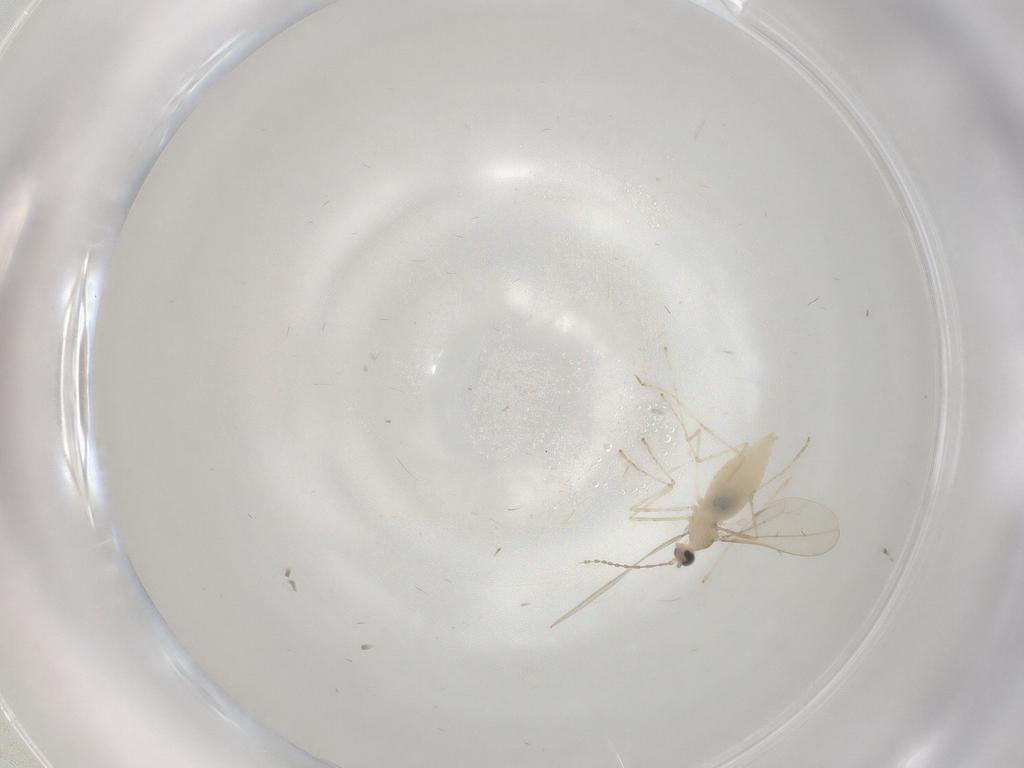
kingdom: Animalia
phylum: Arthropoda
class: Insecta
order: Diptera
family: Cecidomyiidae
